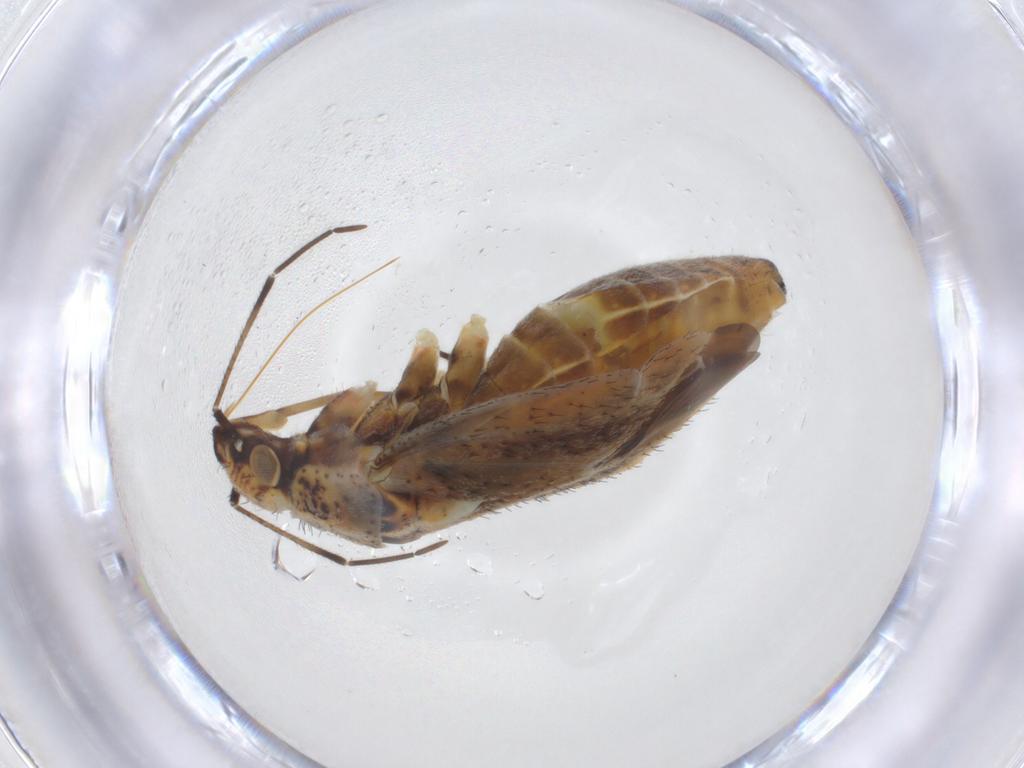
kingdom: Animalia
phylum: Arthropoda
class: Insecta
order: Hemiptera
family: Miridae
